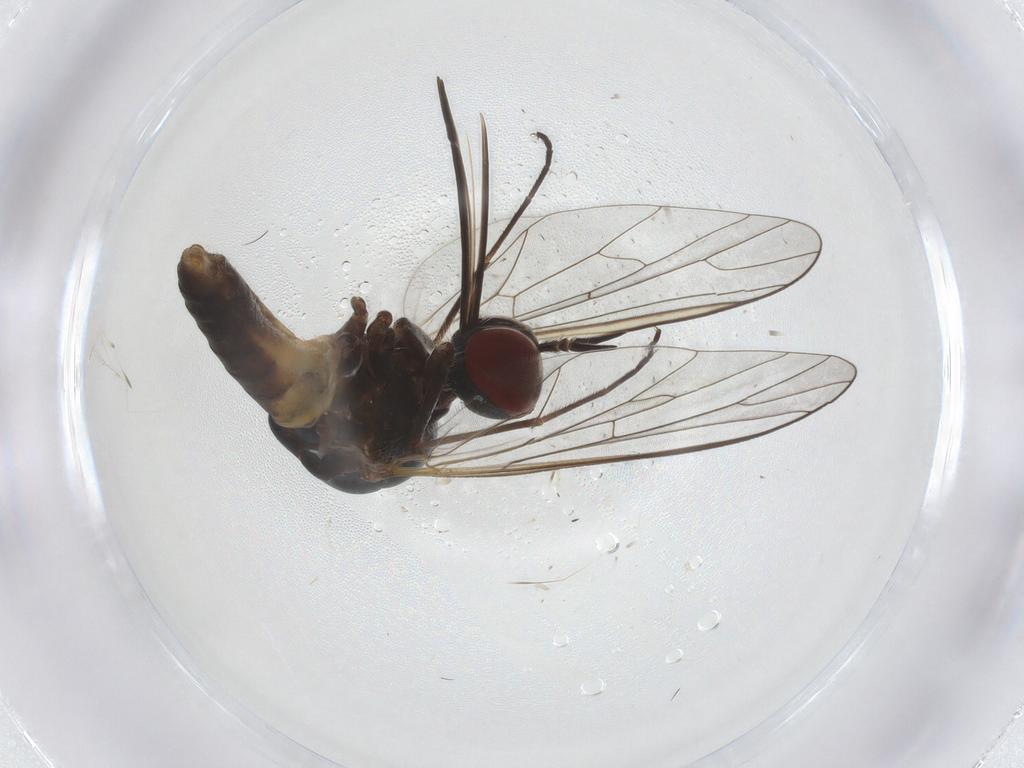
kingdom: Animalia
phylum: Arthropoda
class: Insecta
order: Diptera
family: Bombyliidae
